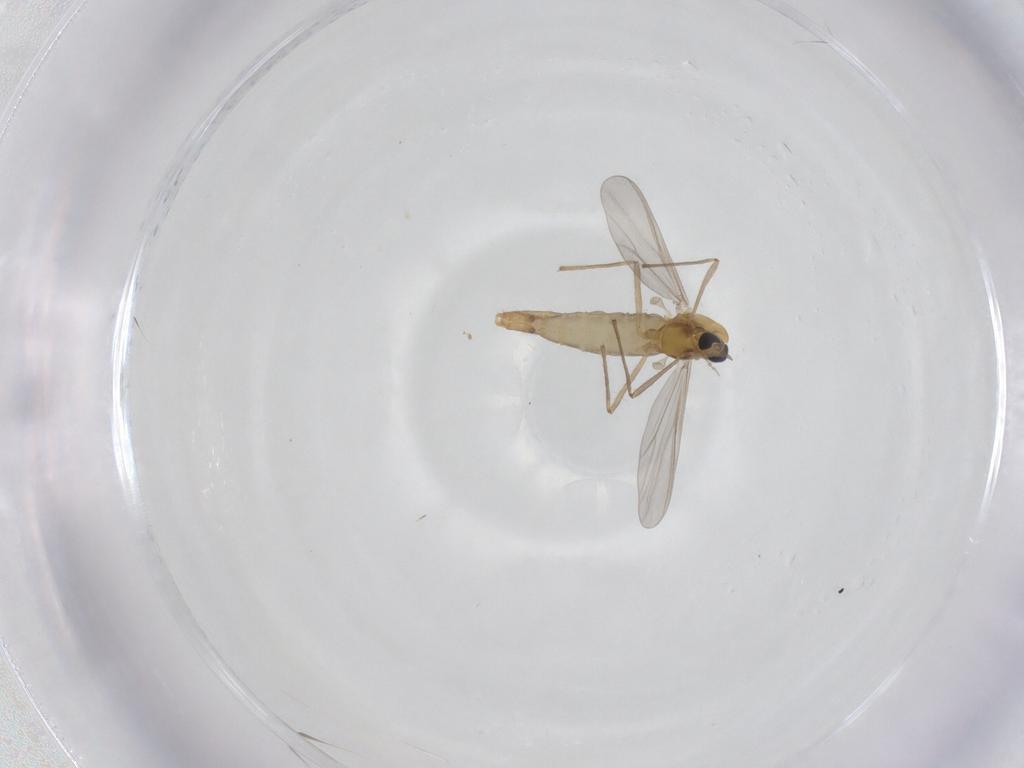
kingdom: Animalia
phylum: Arthropoda
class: Insecta
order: Diptera
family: Chironomidae
